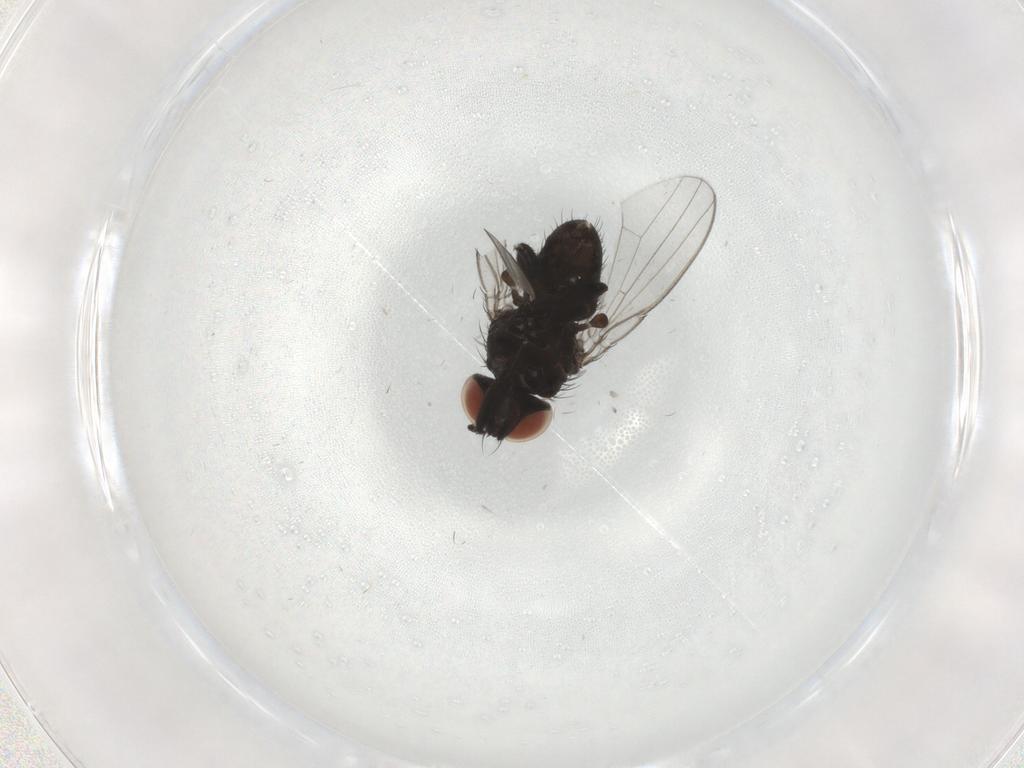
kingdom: Animalia
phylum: Arthropoda
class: Insecta
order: Diptera
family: Milichiidae
